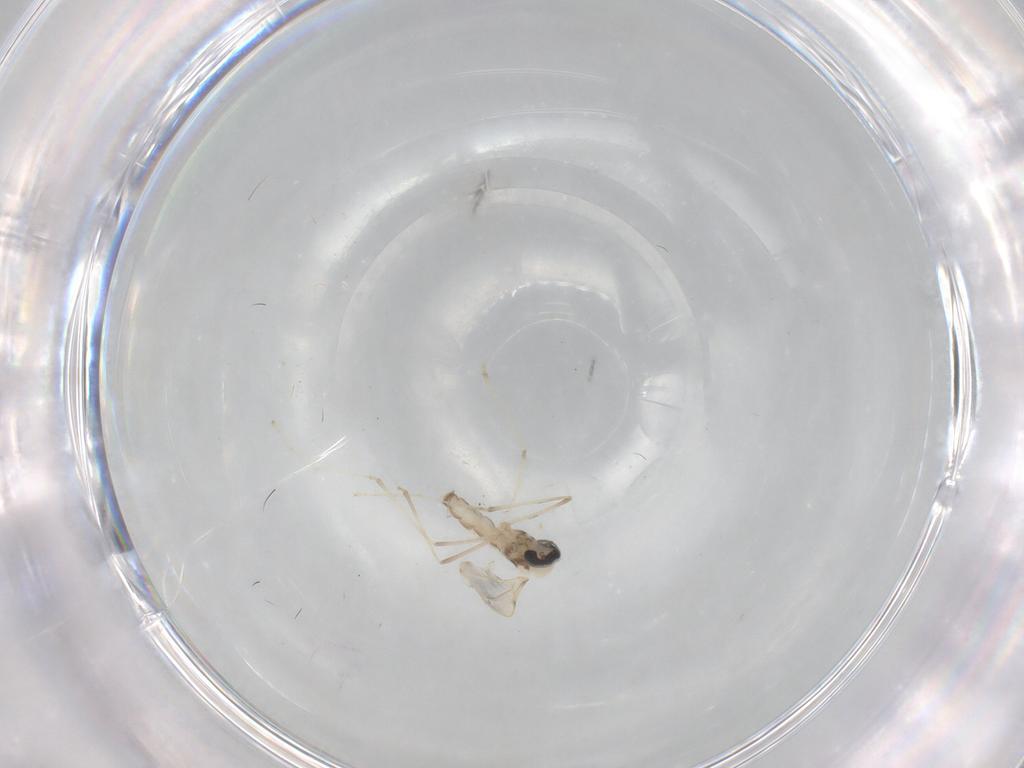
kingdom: Animalia
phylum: Arthropoda
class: Insecta
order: Diptera
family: Cecidomyiidae
